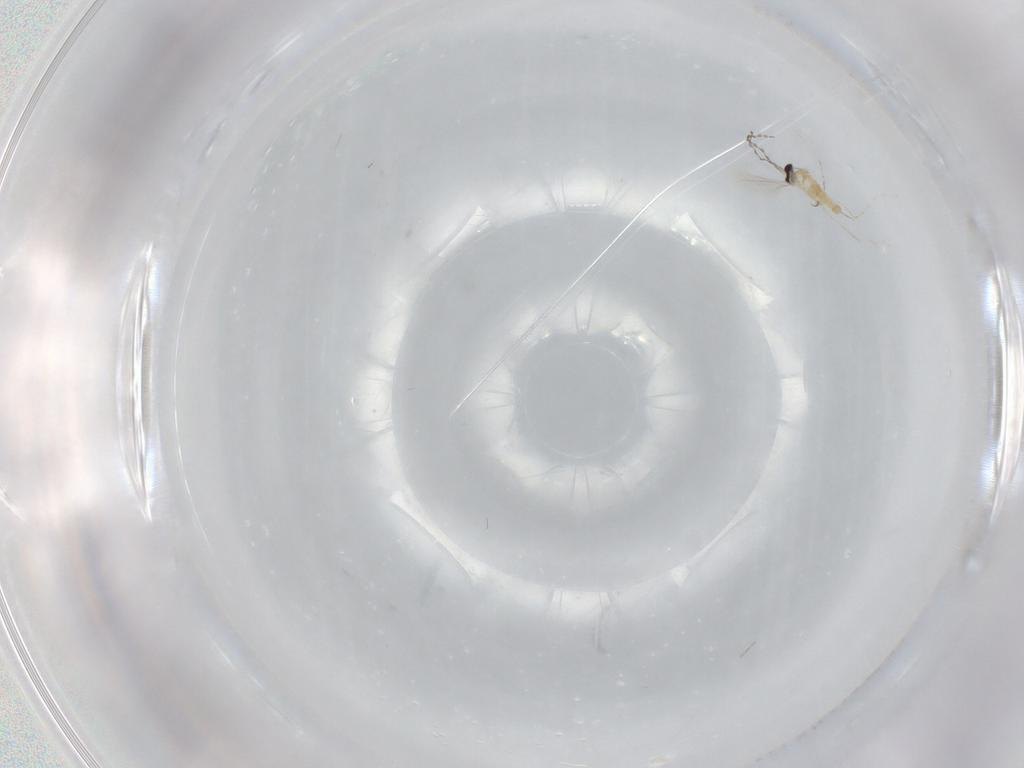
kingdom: Animalia
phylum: Arthropoda
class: Insecta
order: Diptera
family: Cecidomyiidae
